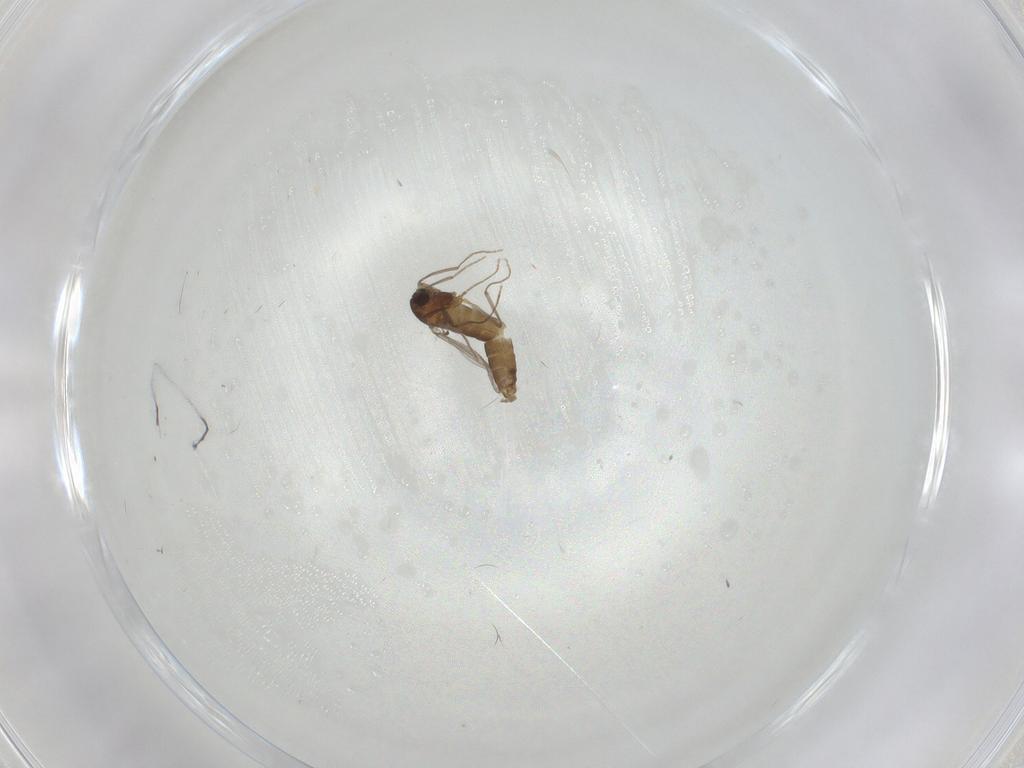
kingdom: Animalia
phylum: Arthropoda
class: Insecta
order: Diptera
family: Chironomidae
